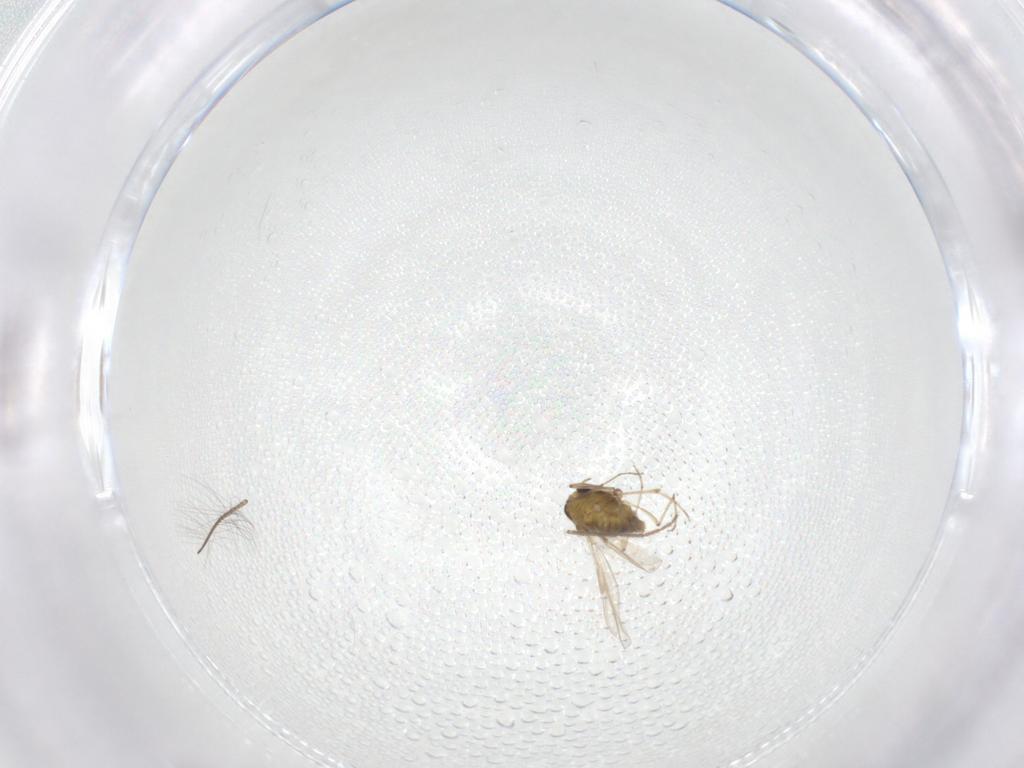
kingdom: Animalia
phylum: Arthropoda
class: Insecta
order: Diptera
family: Chironomidae
